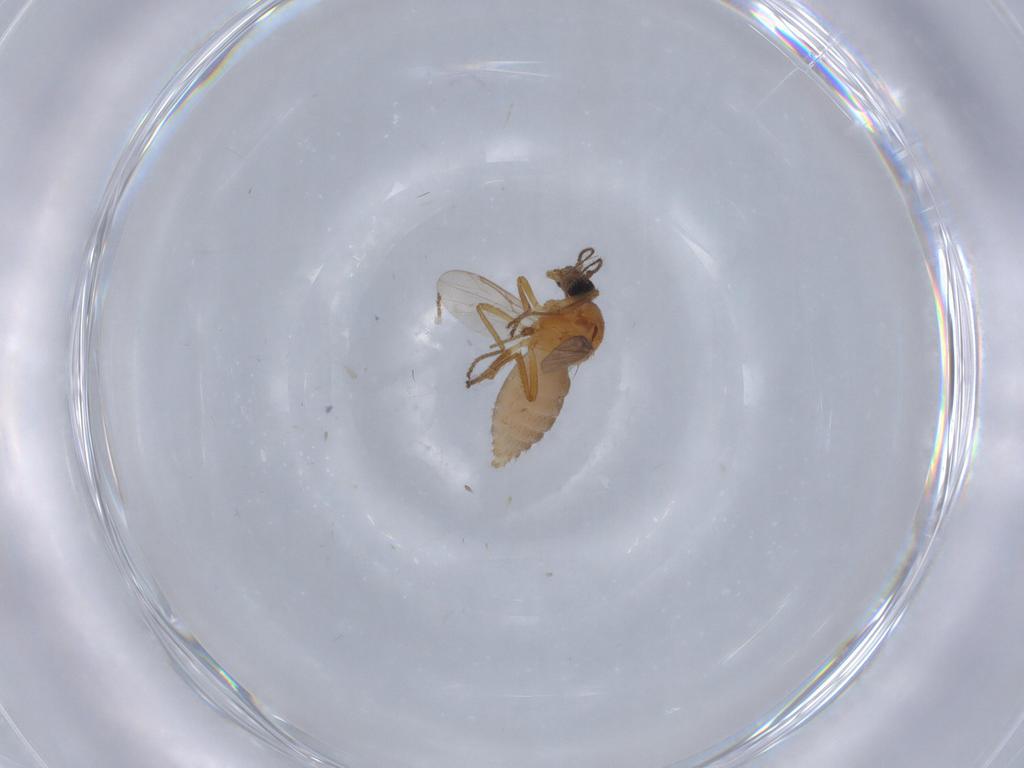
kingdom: Animalia
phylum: Arthropoda
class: Insecta
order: Diptera
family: Ceratopogonidae
